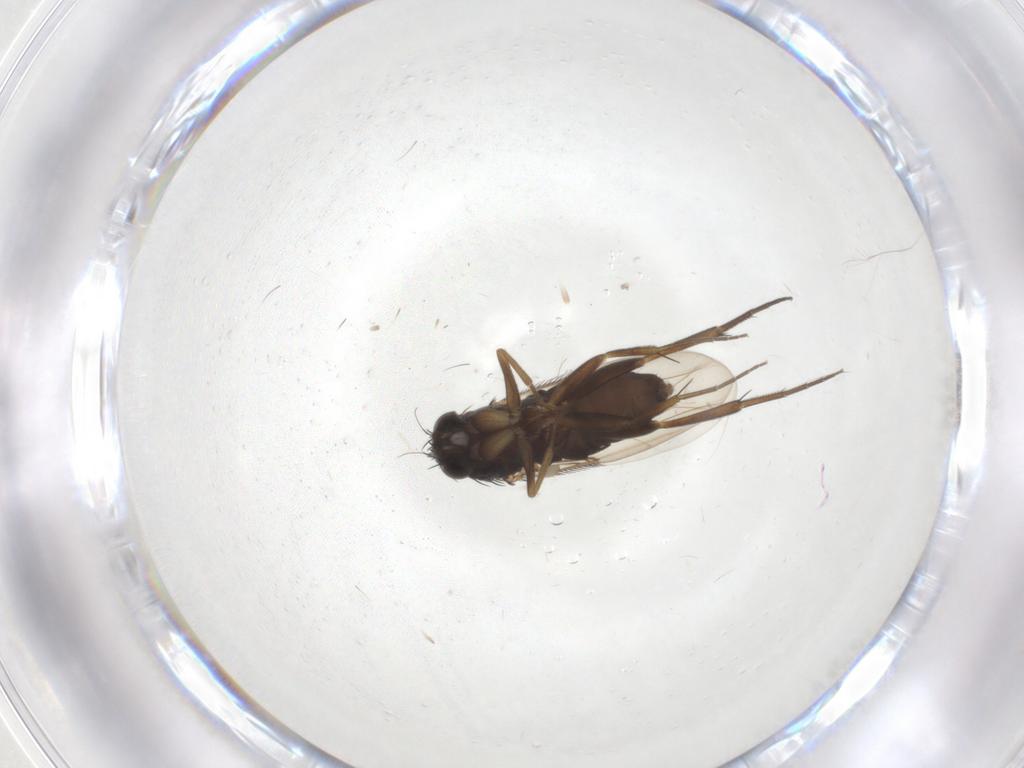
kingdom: Animalia
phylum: Arthropoda
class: Insecta
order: Diptera
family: Phoridae
